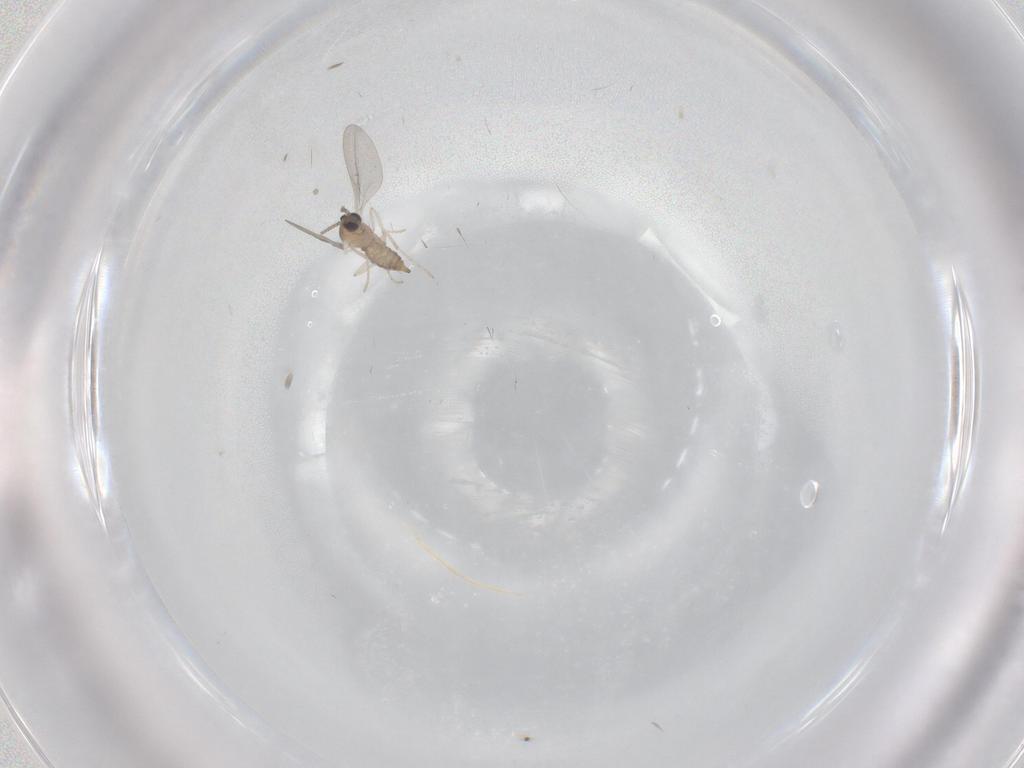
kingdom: Animalia
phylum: Arthropoda
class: Insecta
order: Diptera
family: Cecidomyiidae
